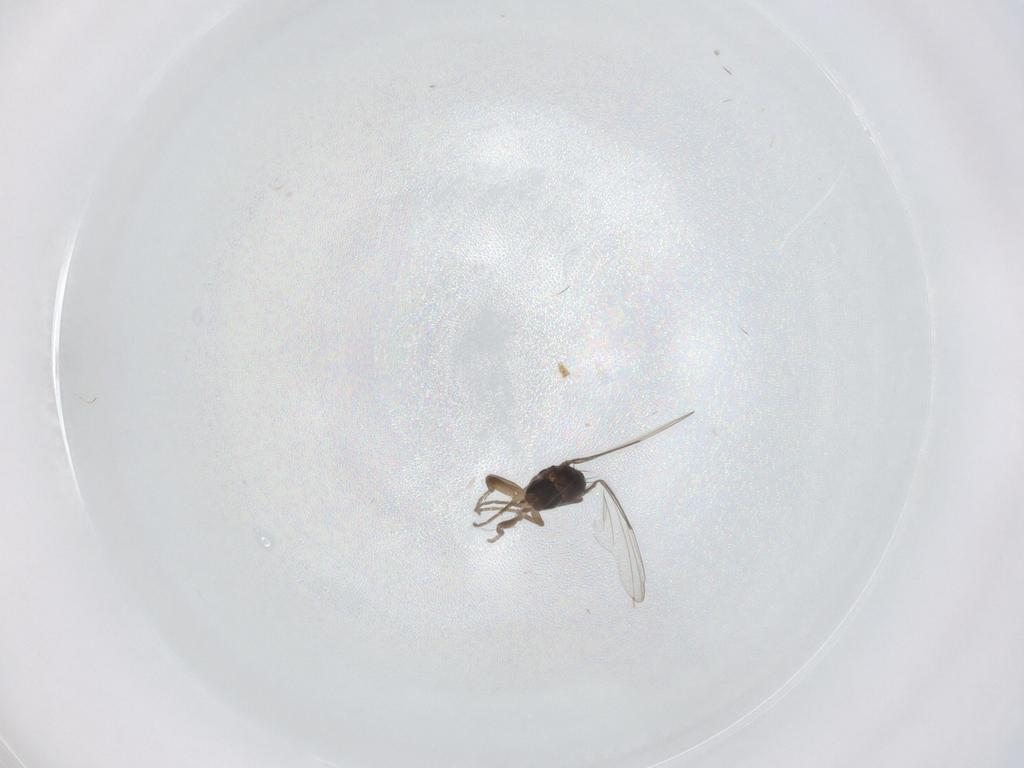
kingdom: Animalia
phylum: Arthropoda
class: Insecta
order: Diptera
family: Phoridae
